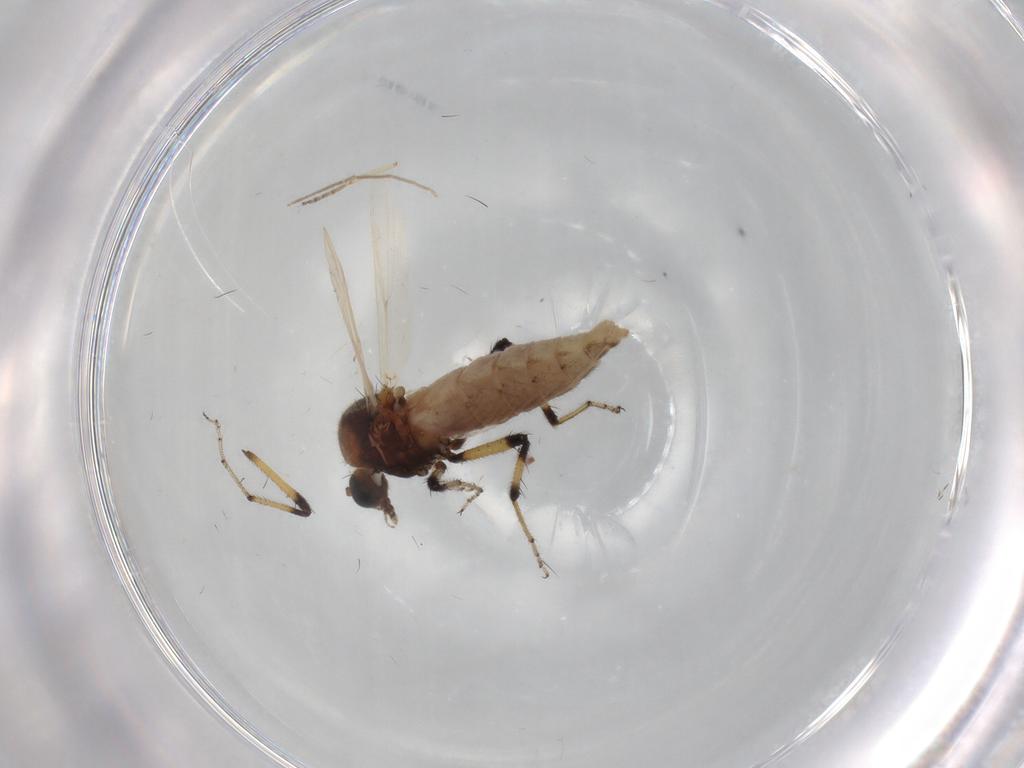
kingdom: Animalia
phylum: Arthropoda
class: Insecta
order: Diptera
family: Ceratopogonidae
